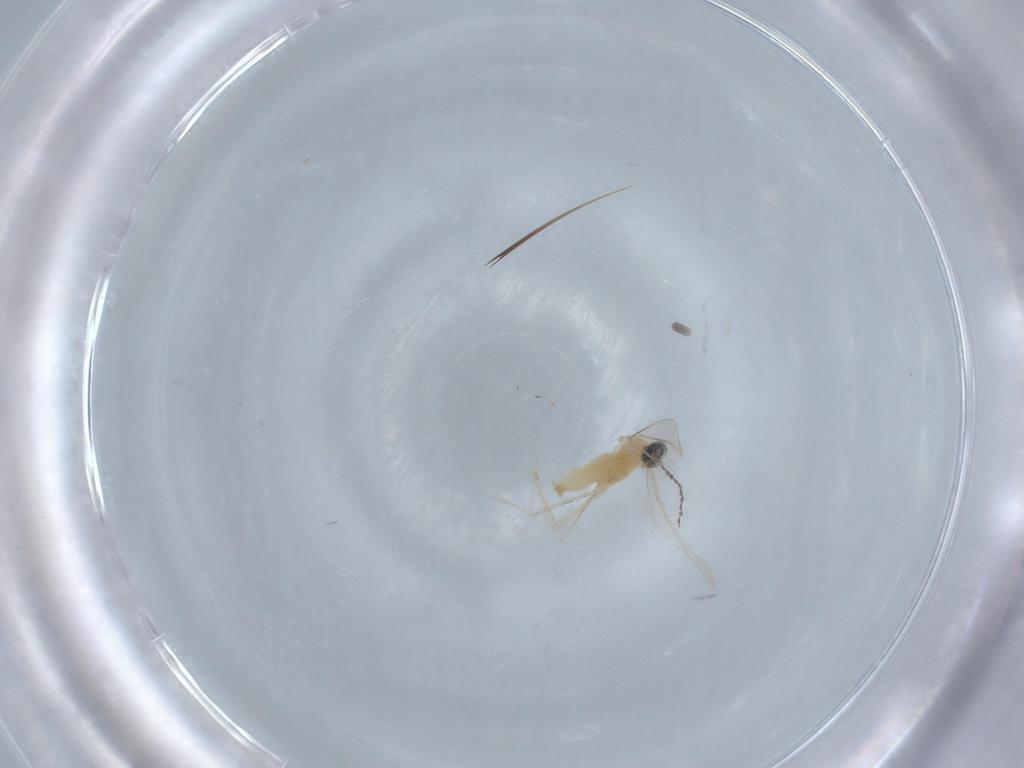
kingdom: Animalia
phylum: Arthropoda
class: Insecta
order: Diptera
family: Cecidomyiidae
